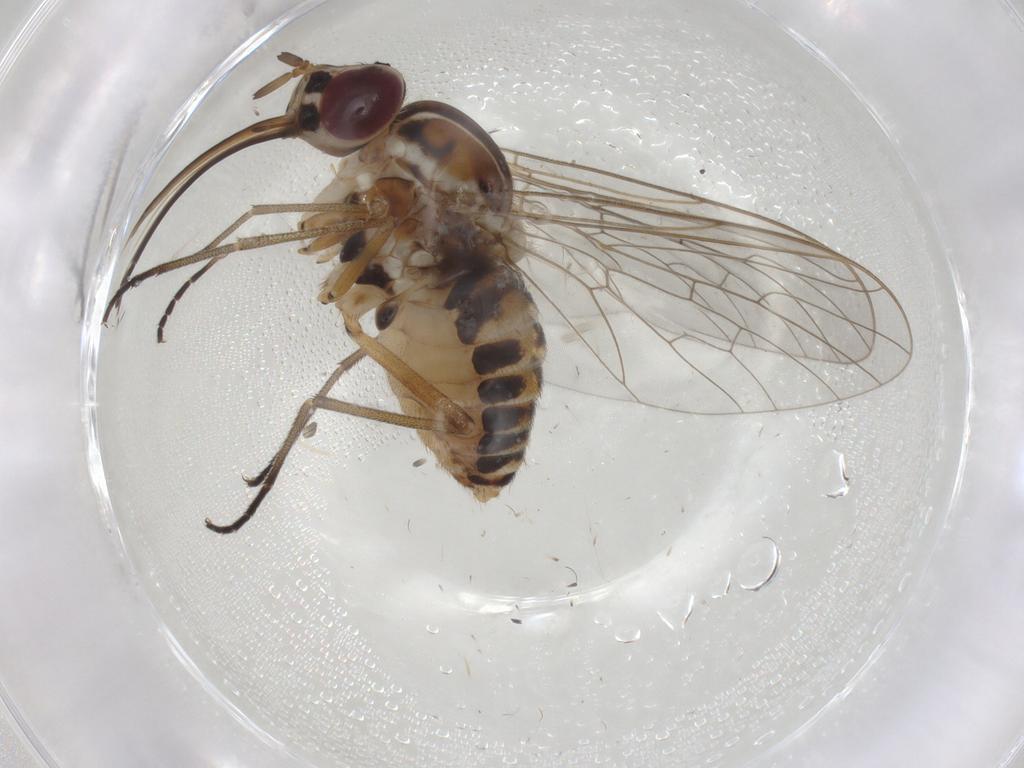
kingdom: Animalia
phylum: Arthropoda
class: Insecta
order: Diptera
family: Bombyliidae
